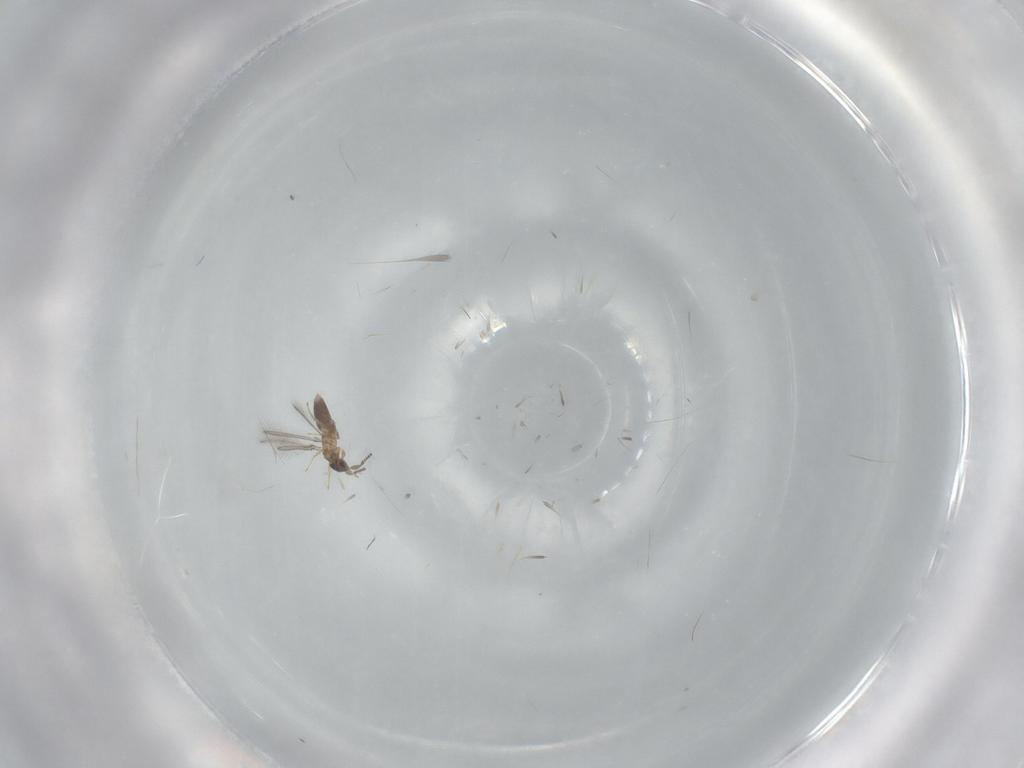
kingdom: Animalia
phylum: Arthropoda
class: Insecta
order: Hymenoptera
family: Mymaridae
